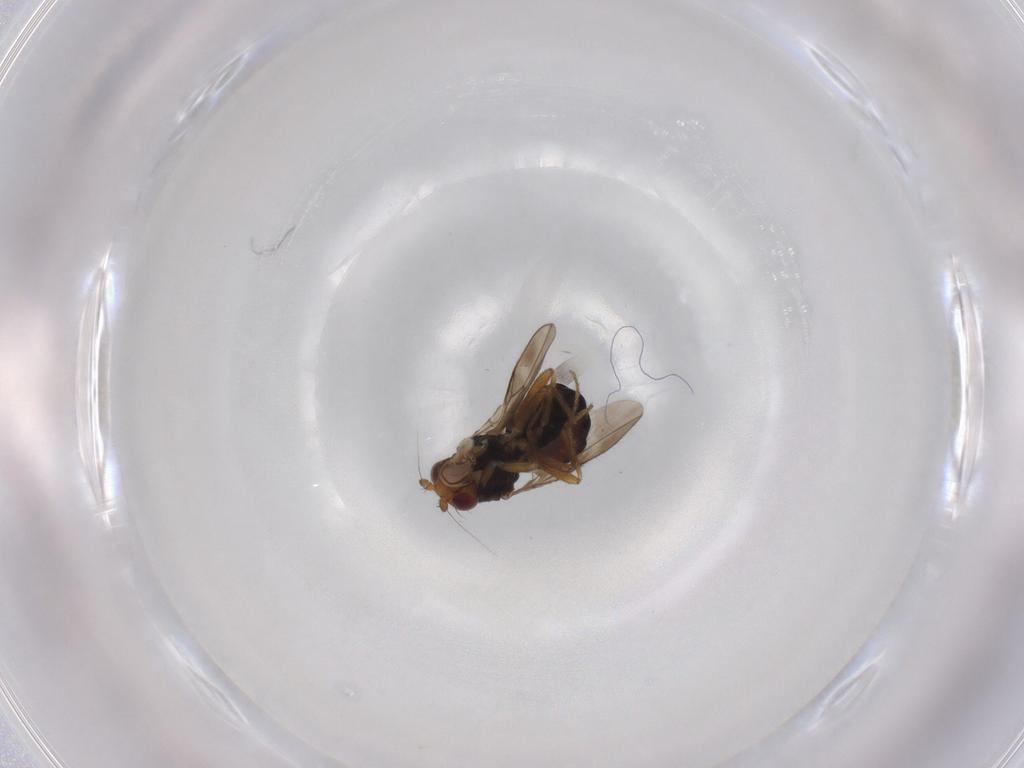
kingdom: Animalia
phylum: Arthropoda
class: Insecta
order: Diptera
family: Sphaeroceridae
